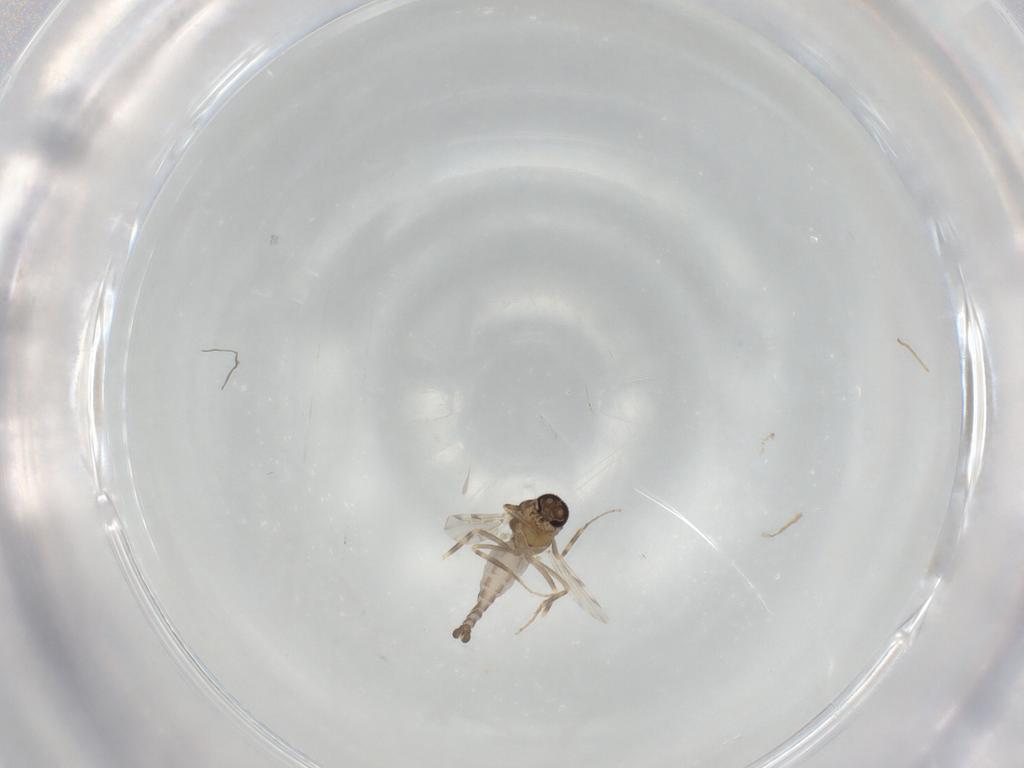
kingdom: Animalia
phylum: Arthropoda
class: Insecta
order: Diptera
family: Ceratopogonidae
